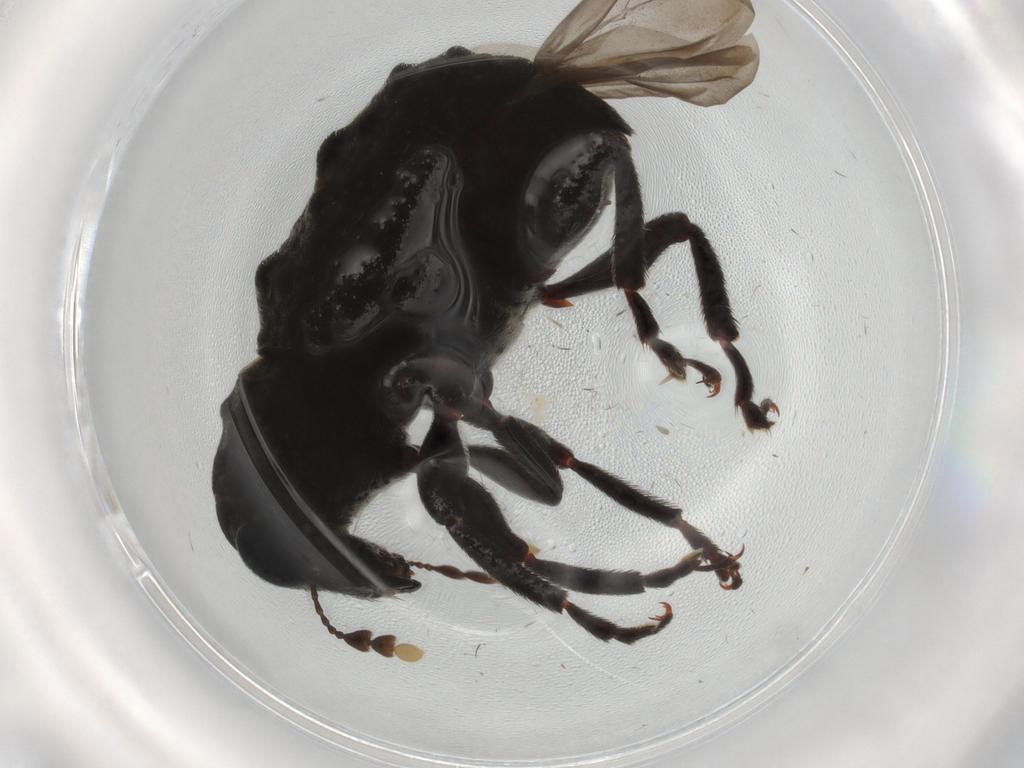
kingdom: Animalia
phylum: Arthropoda
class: Insecta
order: Coleoptera
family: Anthribidae
